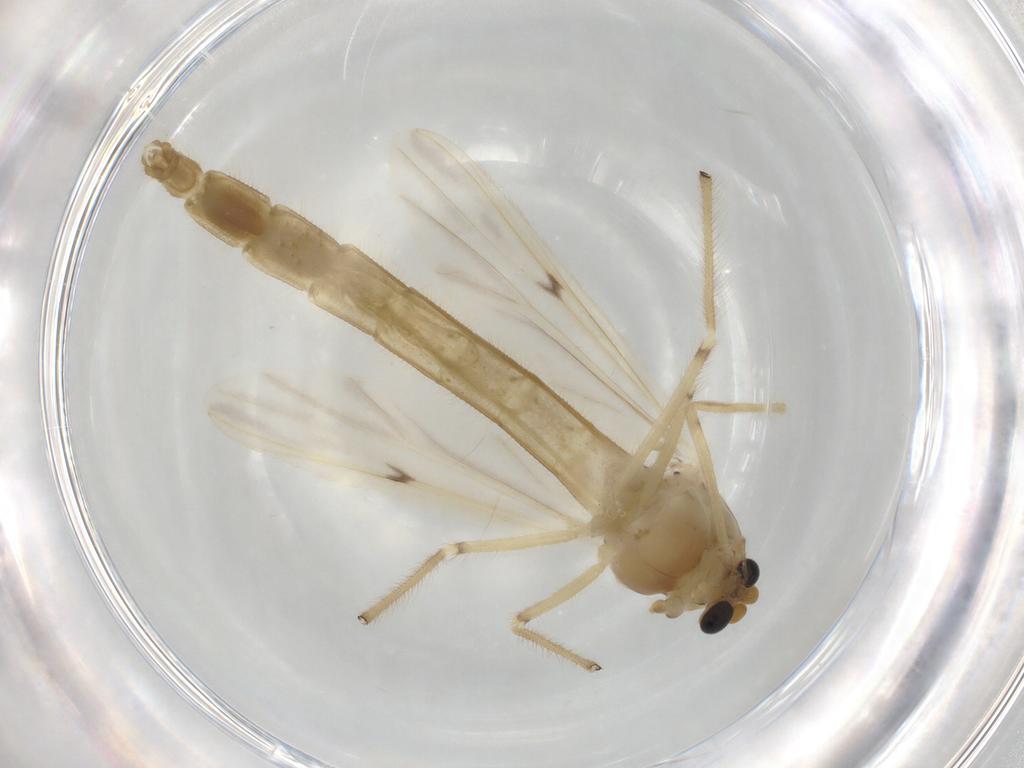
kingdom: Animalia
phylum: Arthropoda
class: Insecta
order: Diptera
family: Chironomidae
